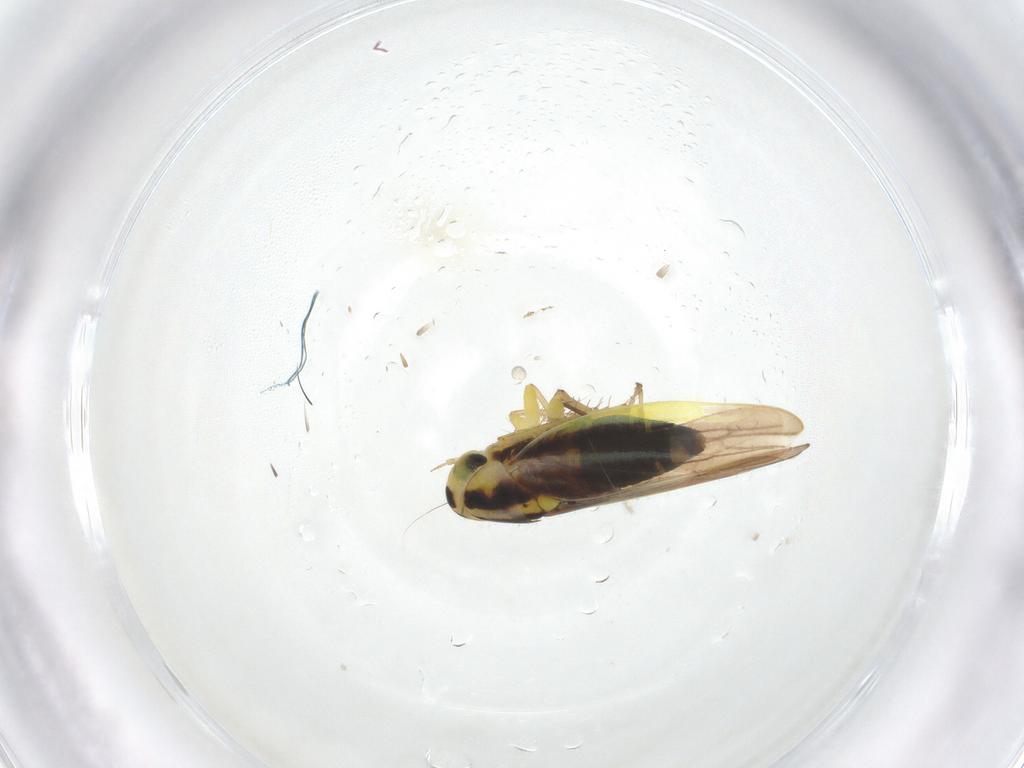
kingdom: Animalia
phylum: Arthropoda
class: Insecta
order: Hemiptera
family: Cicadellidae
